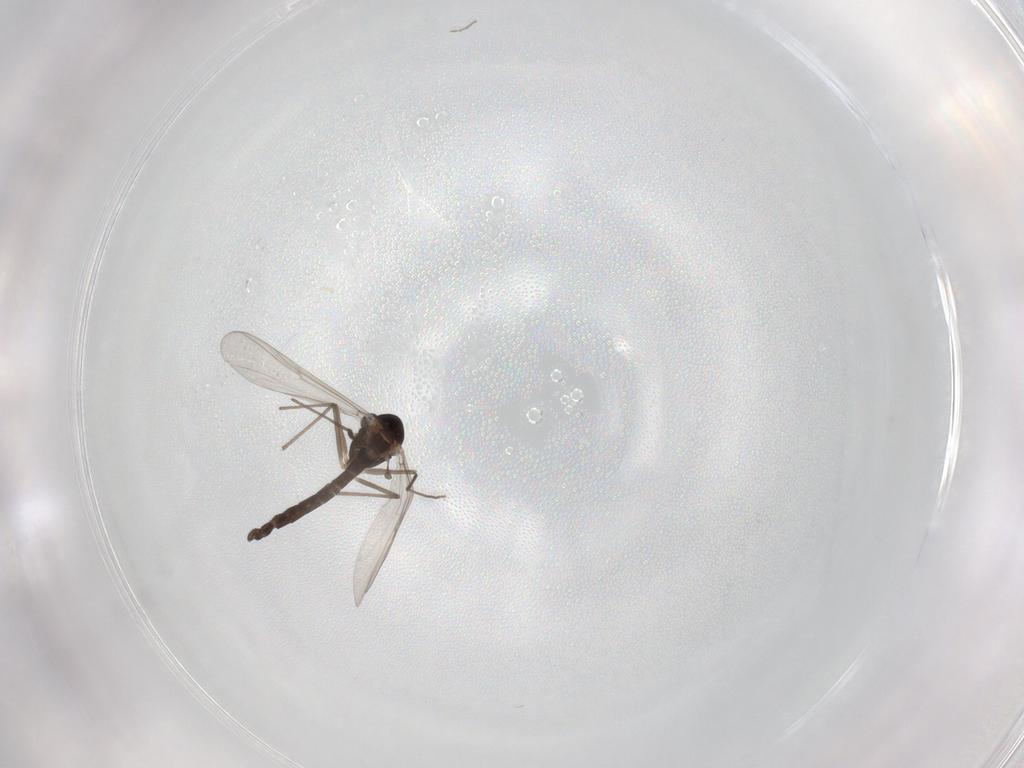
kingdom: Animalia
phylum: Arthropoda
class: Insecta
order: Diptera
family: Chironomidae
